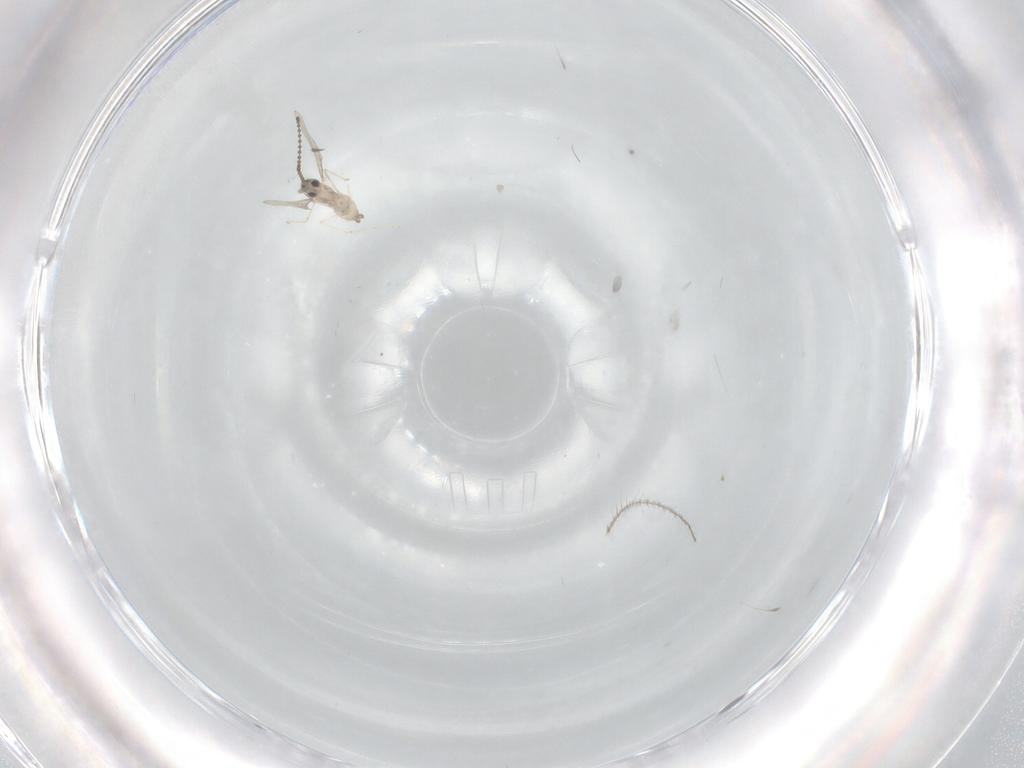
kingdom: Animalia
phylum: Arthropoda
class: Insecta
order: Diptera
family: Cecidomyiidae
